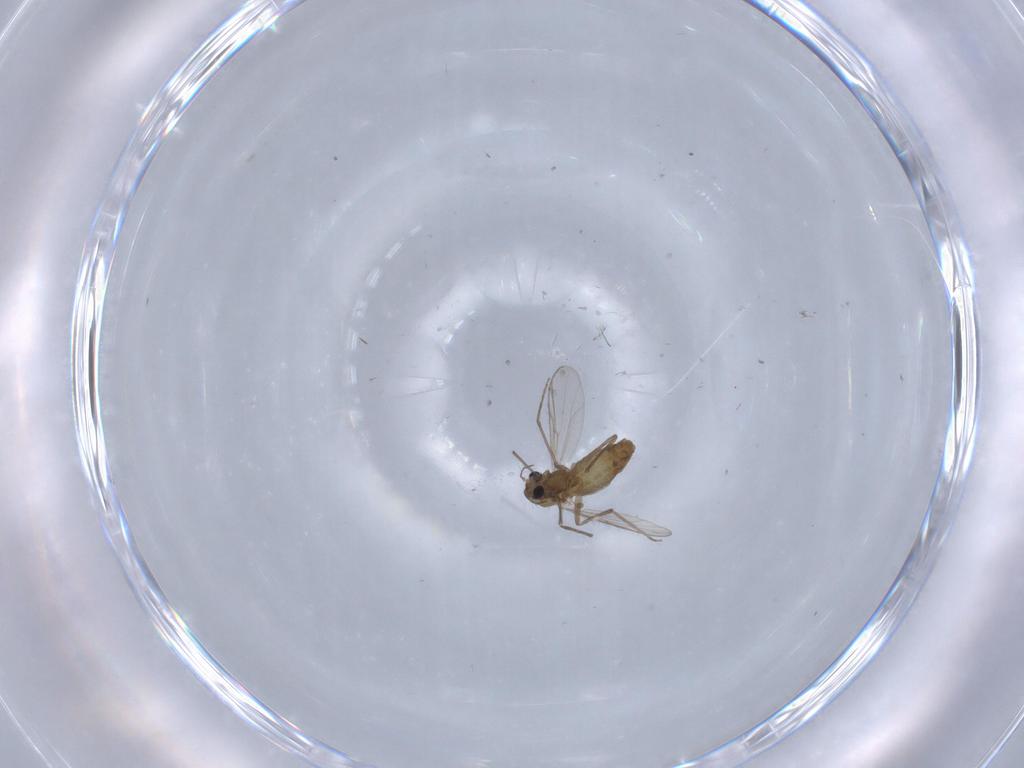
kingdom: Animalia
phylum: Arthropoda
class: Insecta
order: Diptera
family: Chironomidae
